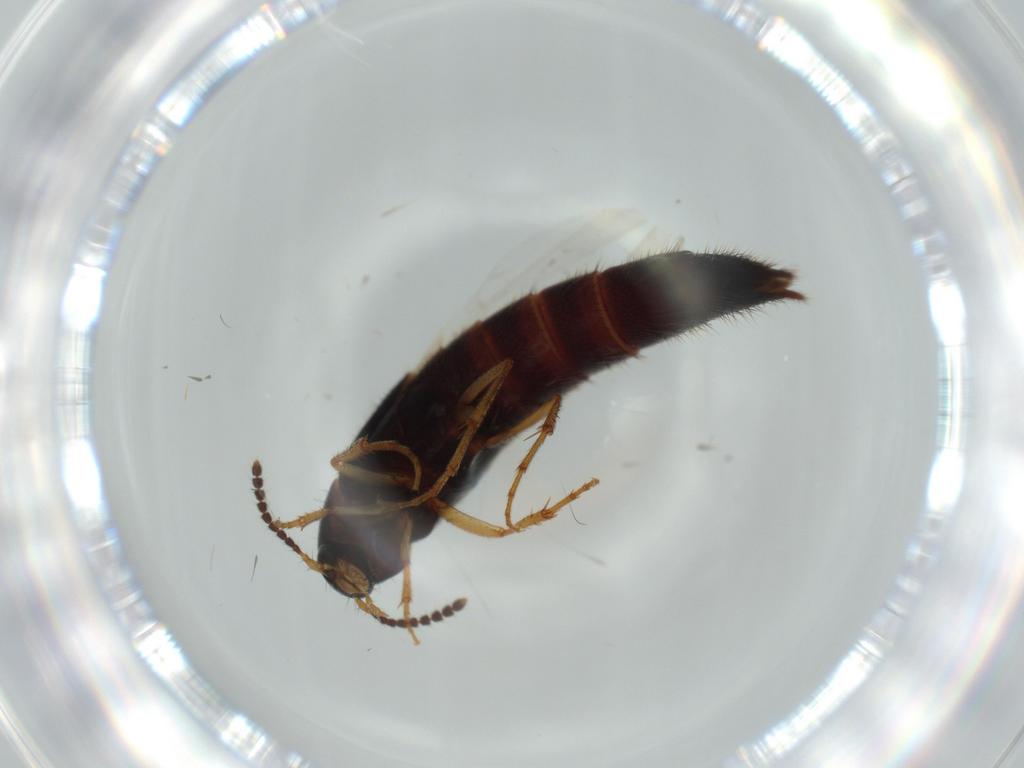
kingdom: Animalia
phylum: Arthropoda
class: Insecta
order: Coleoptera
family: Staphylinidae
